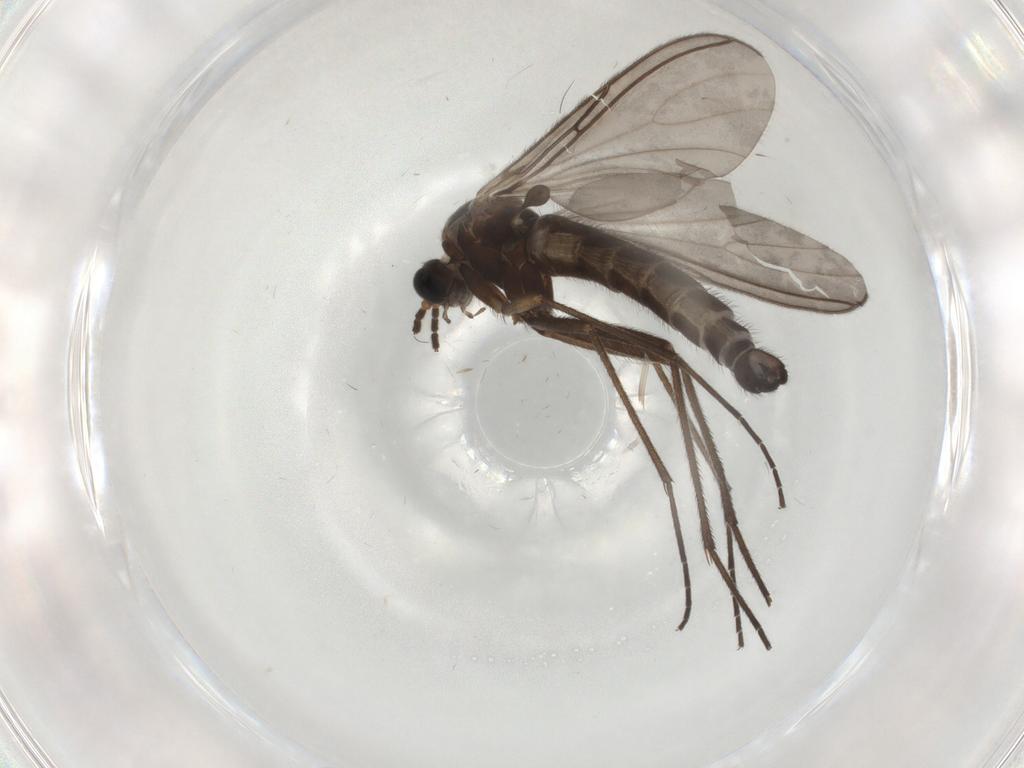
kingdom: Animalia
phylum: Arthropoda
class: Insecta
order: Diptera
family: Sciaridae
